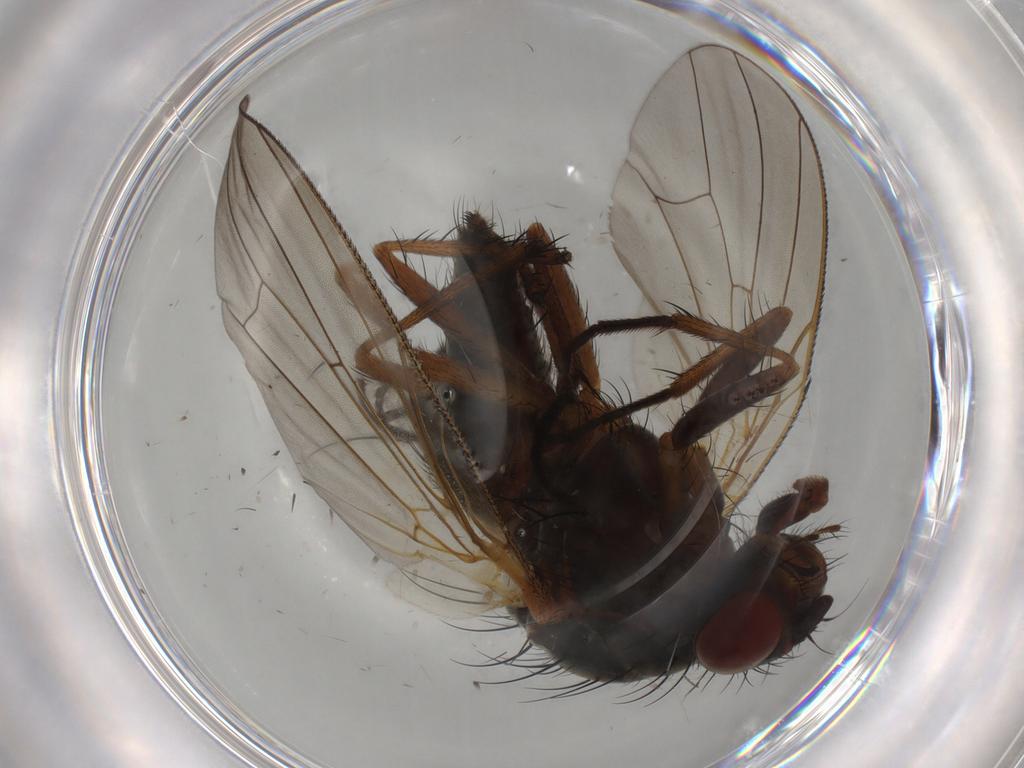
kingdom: Animalia
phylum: Arthropoda
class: Insecta
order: Diptera
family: Anthomyiidae
